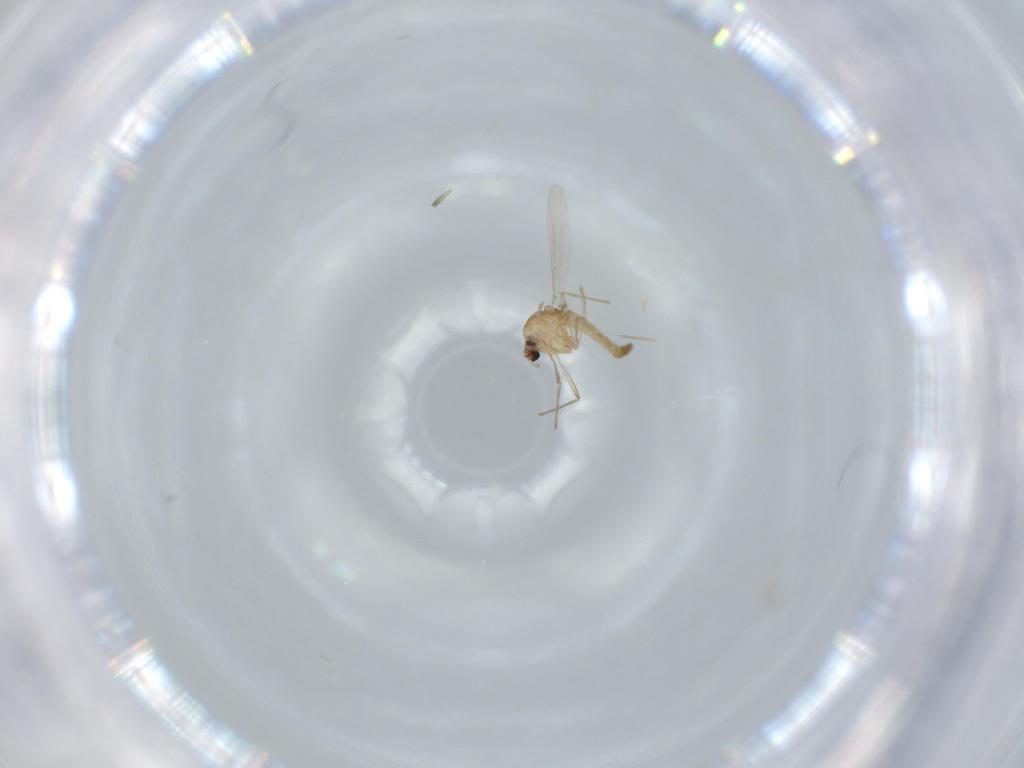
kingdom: Animalia
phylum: Arthropoda
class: Insecta
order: Diptera
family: Chironomidae
